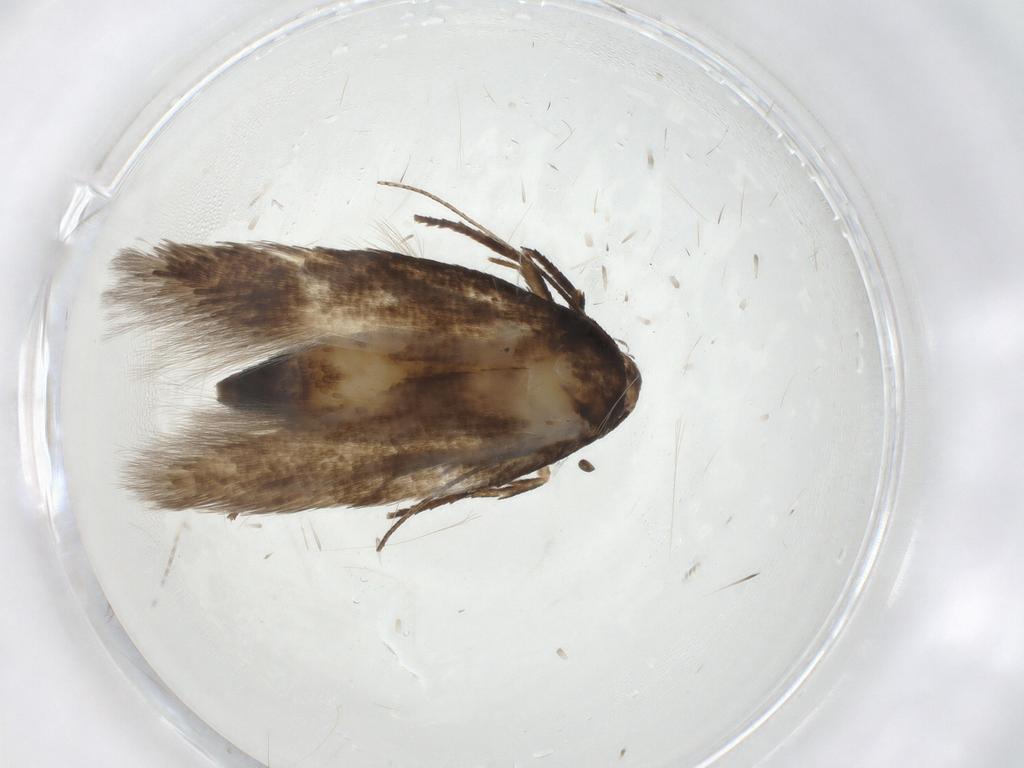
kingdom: Animalia
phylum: Arthropoda
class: Insecta
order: Lepidoptera
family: Cosmopterigidae
